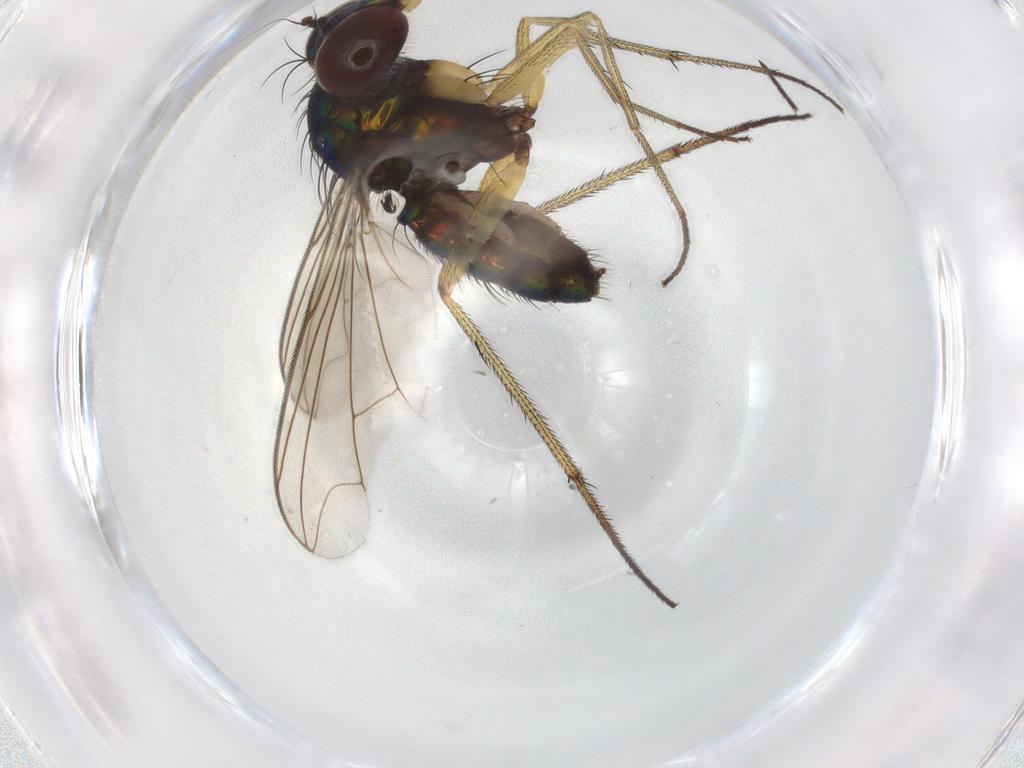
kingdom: Animalia
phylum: Arthropoda
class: Insecta
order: Diptera
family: Dolichopodidae
